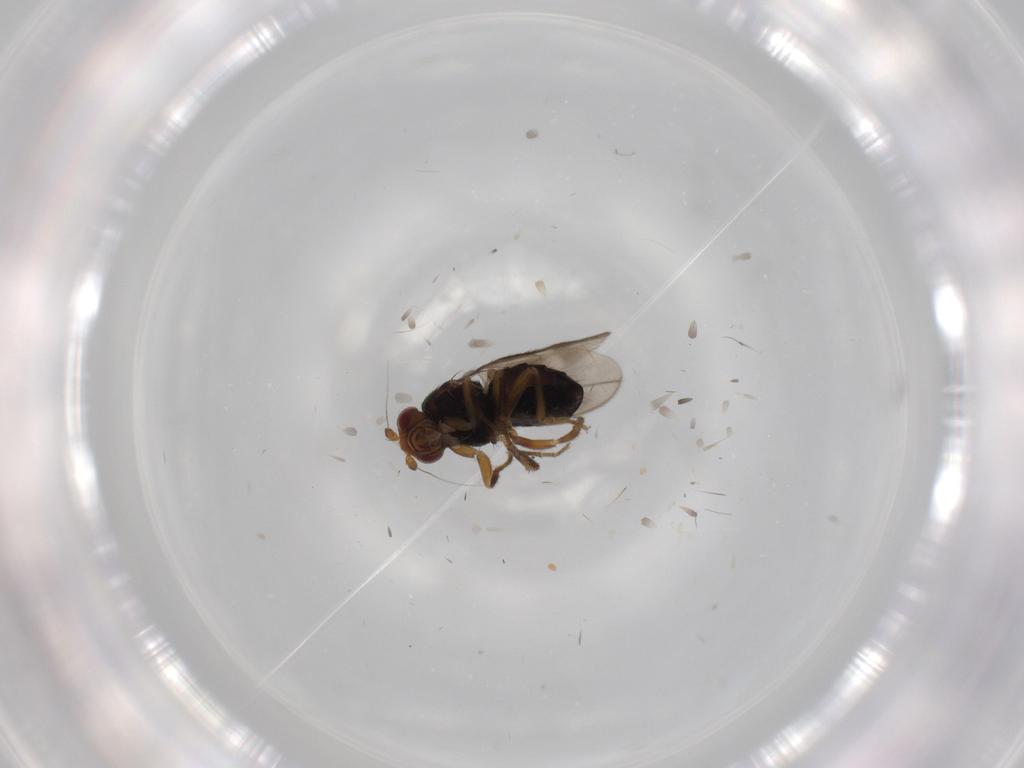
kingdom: Animalia
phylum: Arthropoda
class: Insecta
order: Diptera
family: Sphaeroceridae
